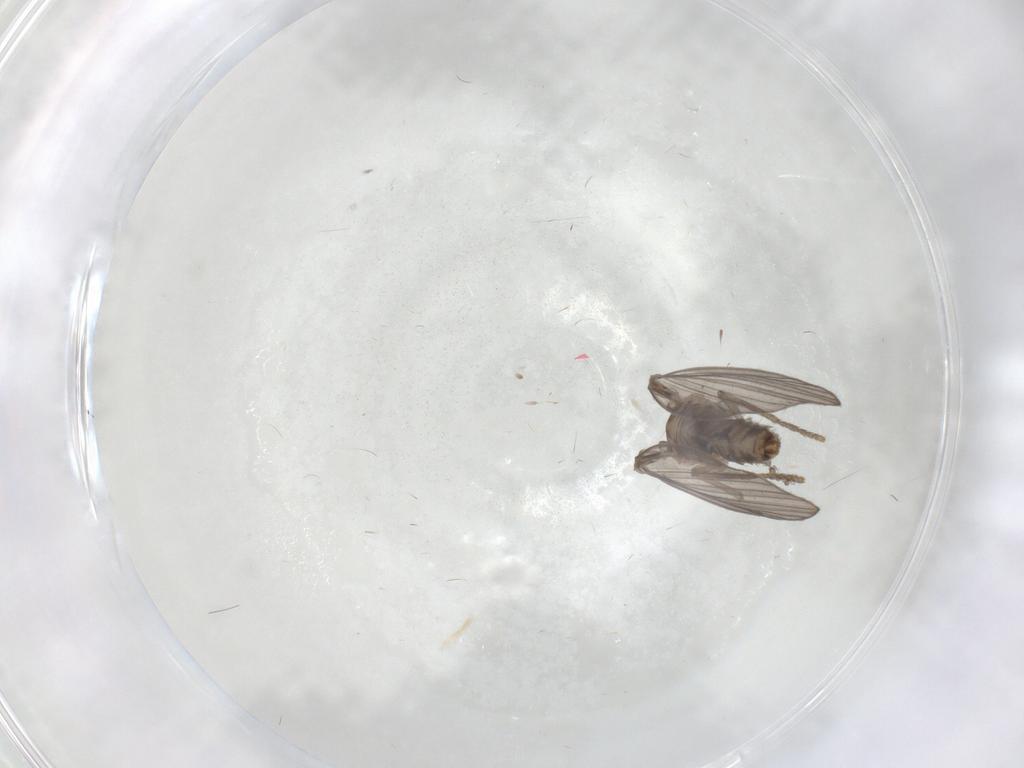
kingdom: Animalia
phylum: Arthropoda
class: Insecta
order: Diptera
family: Psychodidae
